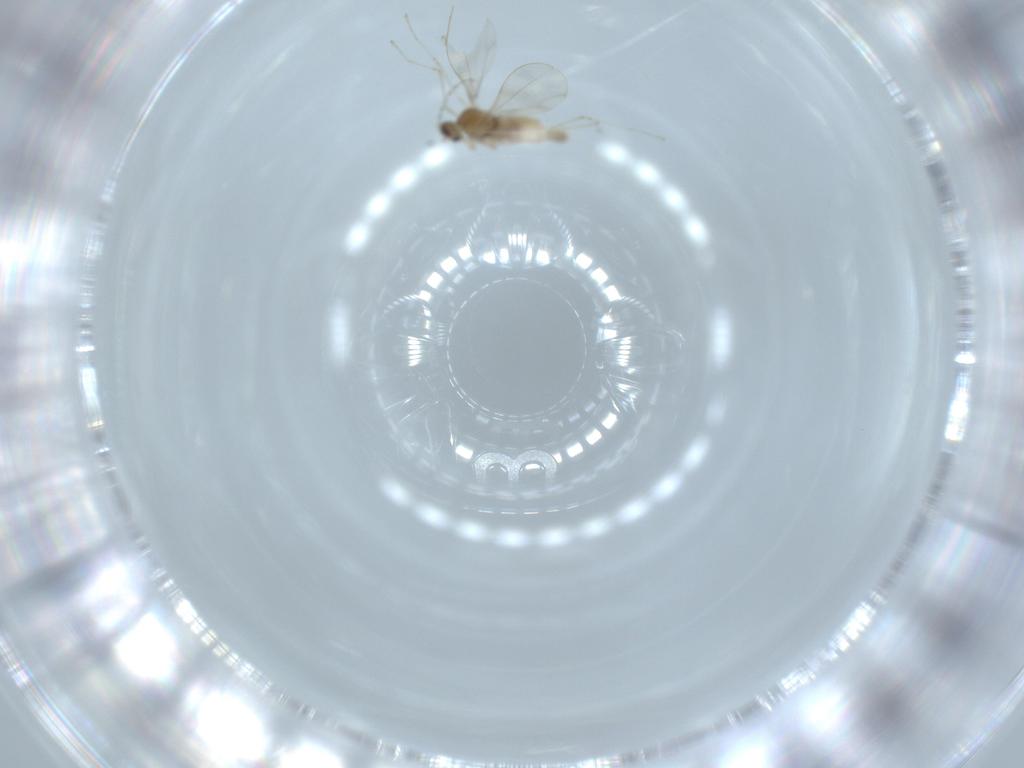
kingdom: Animalia
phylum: Arthropoda
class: Insecta
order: Diptera
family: Cecidomyiidae
